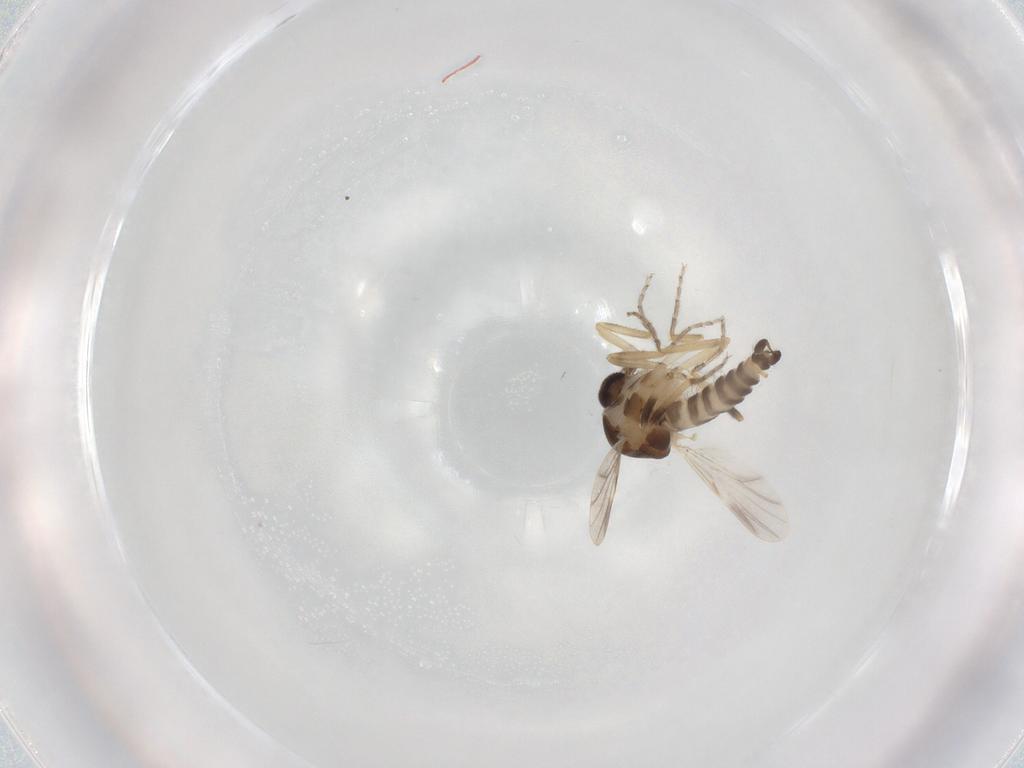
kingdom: Animalia
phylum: Arthropoda
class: Insecta
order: Diptera
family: Ceratopogonidae
